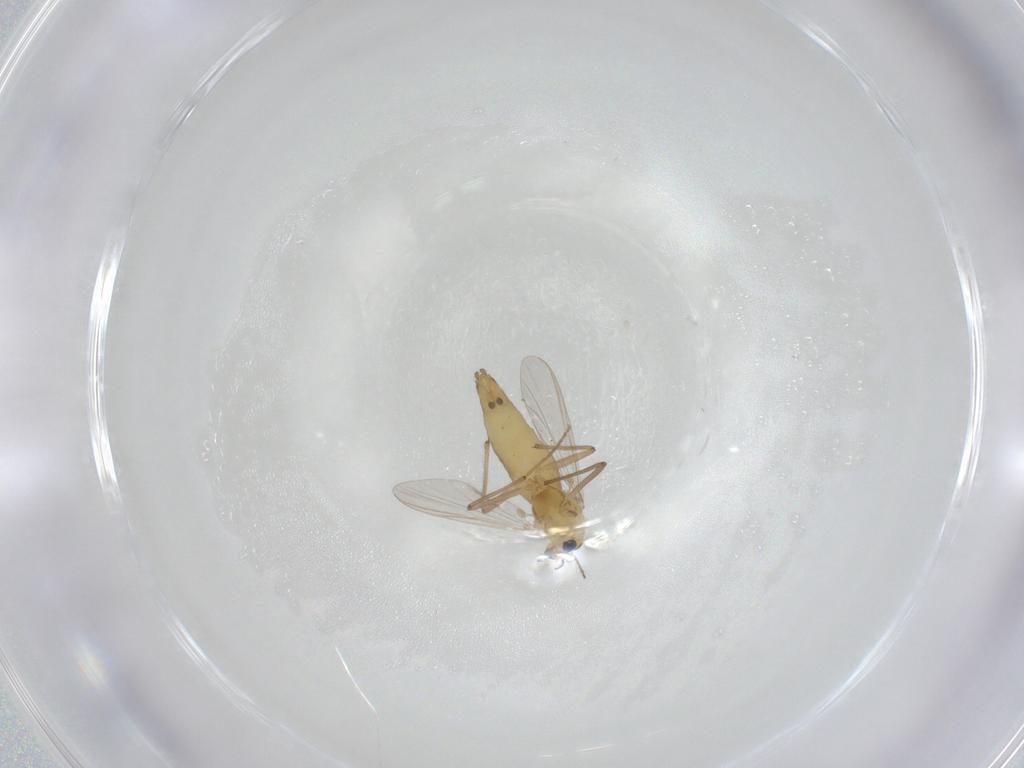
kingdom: Animalia
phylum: Arthropoda
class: Insecta
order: Diptera
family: Chironomidae
